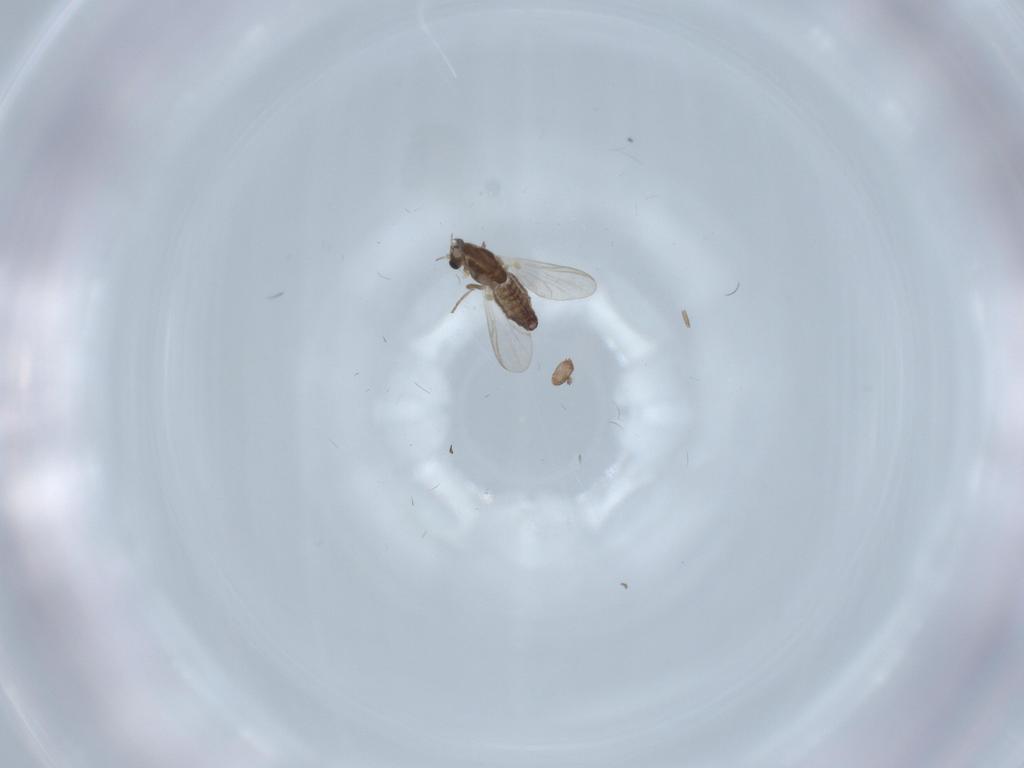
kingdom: Animalia
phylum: Arthropoda
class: Insecta
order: Diptera
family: Chironomidae
